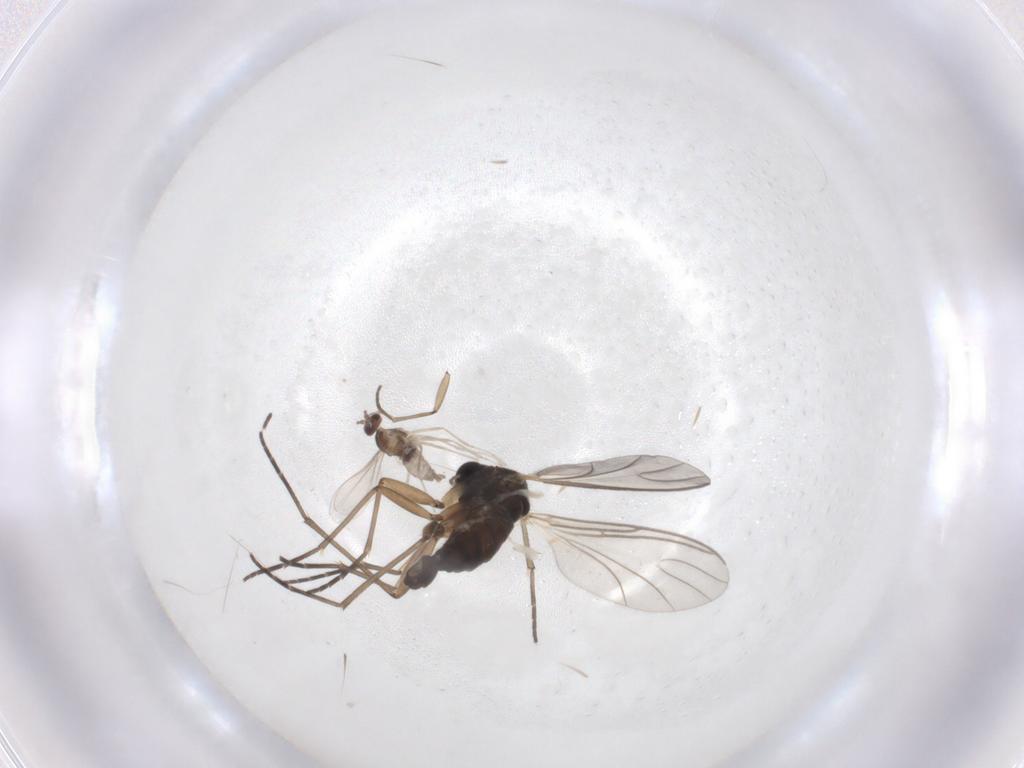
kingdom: Animalia
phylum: Arthropoda
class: Insecta
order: Diptera
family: Sciaridae
